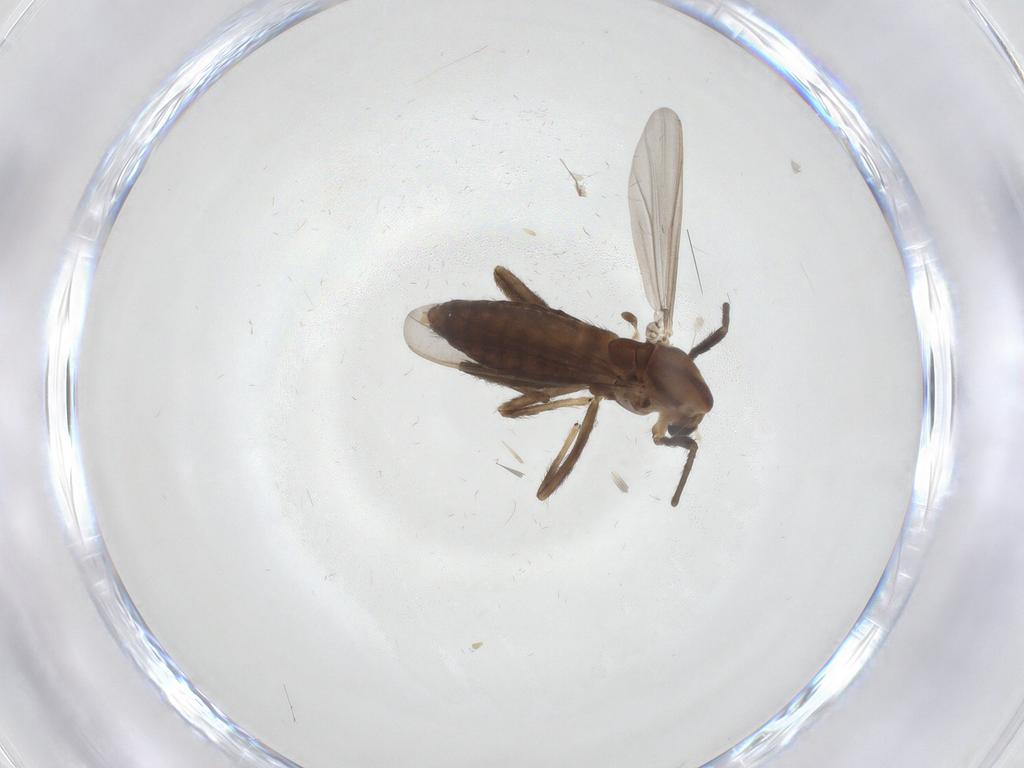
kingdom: Animalia
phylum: Arthropoda
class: Insecta
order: Diptera
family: Chironomidae
